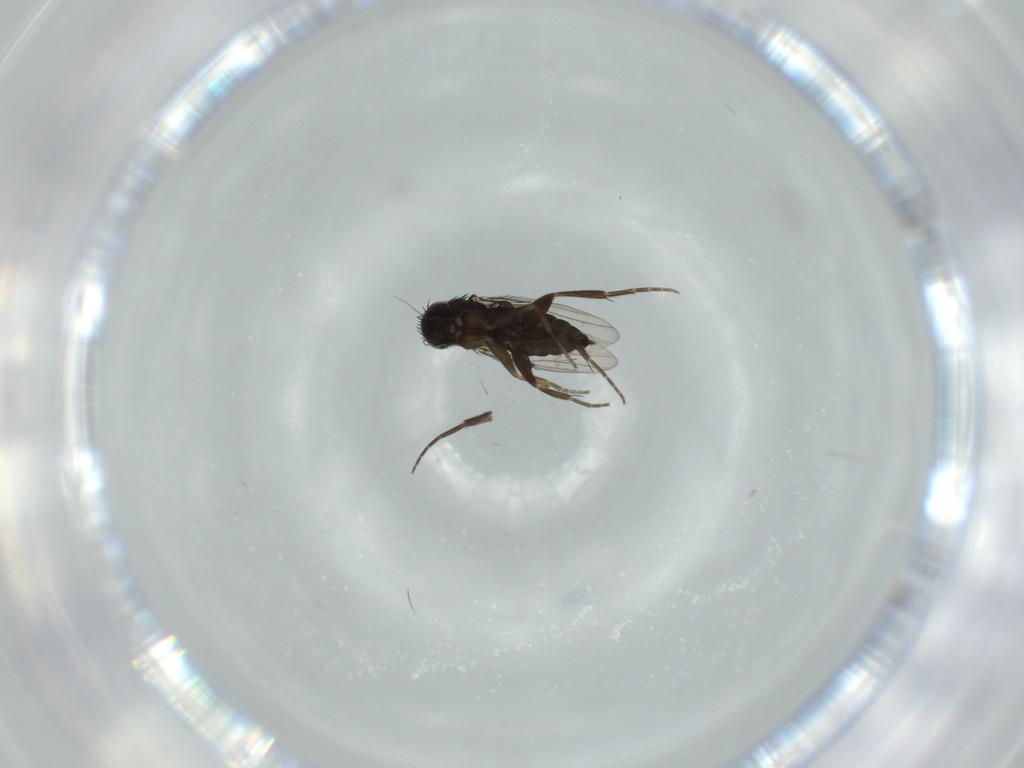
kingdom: Animalia
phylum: Arthropoda
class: Insecta
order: Diptera
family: Phoridae
